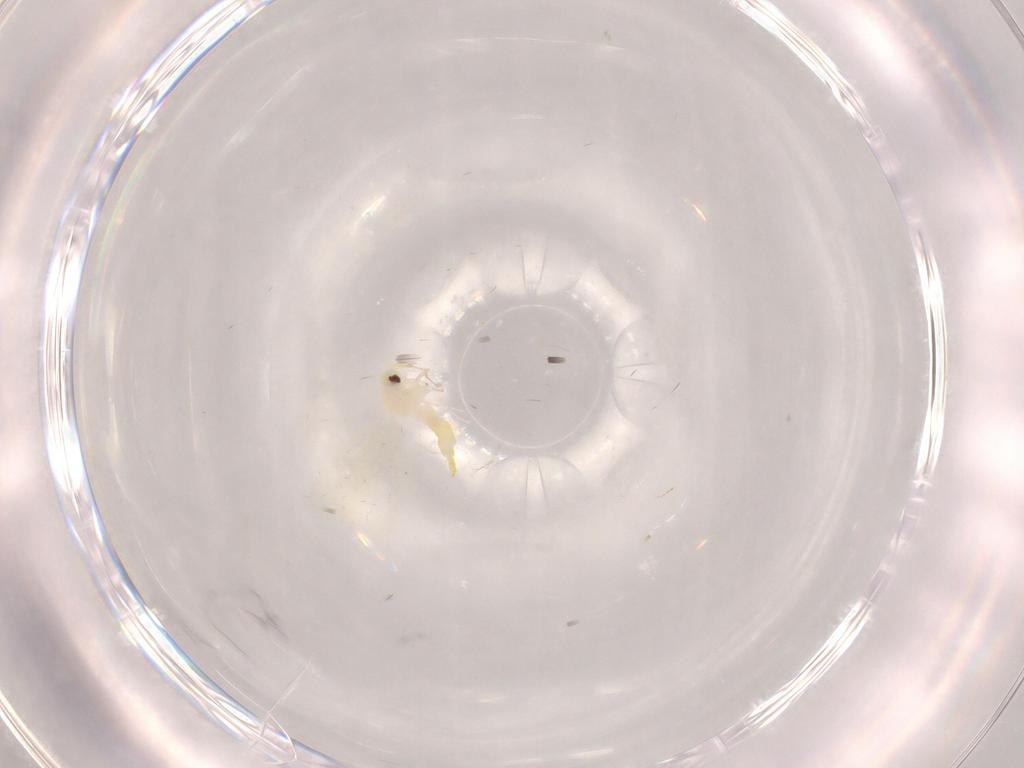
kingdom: Animalia
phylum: Arthropoda
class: Insecta
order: Hemiptera
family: Aleyrodidae
